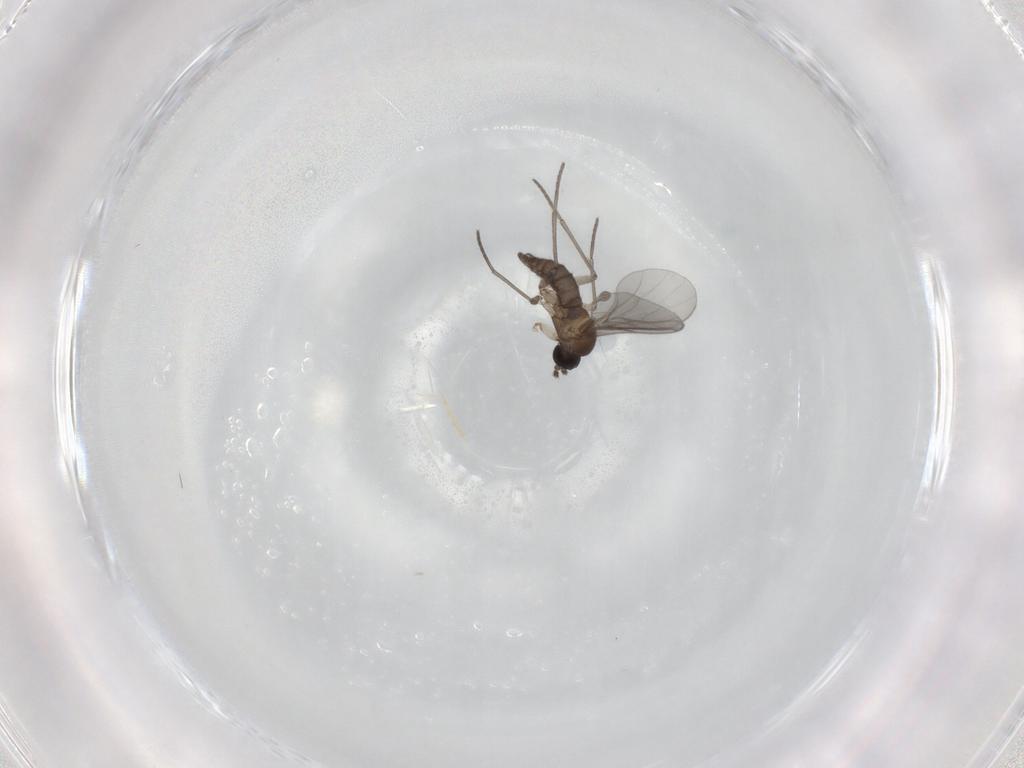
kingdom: Animalia
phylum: Arthropoda
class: Insecta
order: Diptera
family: Sciaridae
